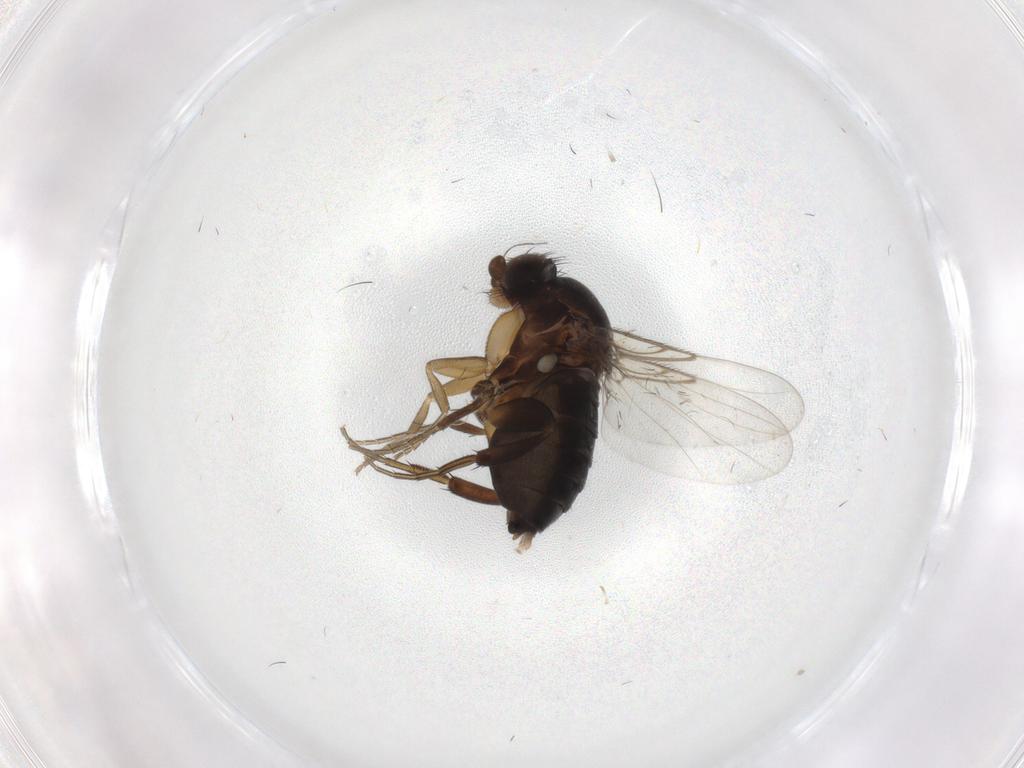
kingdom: Animalia
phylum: Arthropoda
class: Insecta
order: Diptera
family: Phoridae
